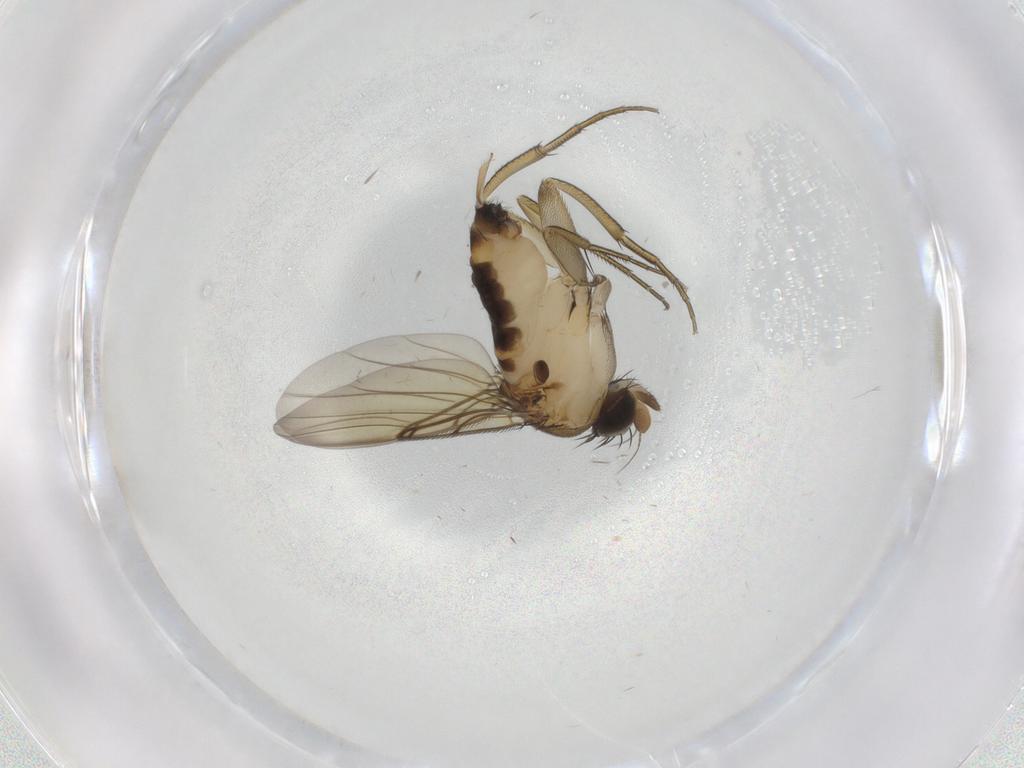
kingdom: Animalia
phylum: Arthropoda
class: Insecta
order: Diptera
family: Phoridae
